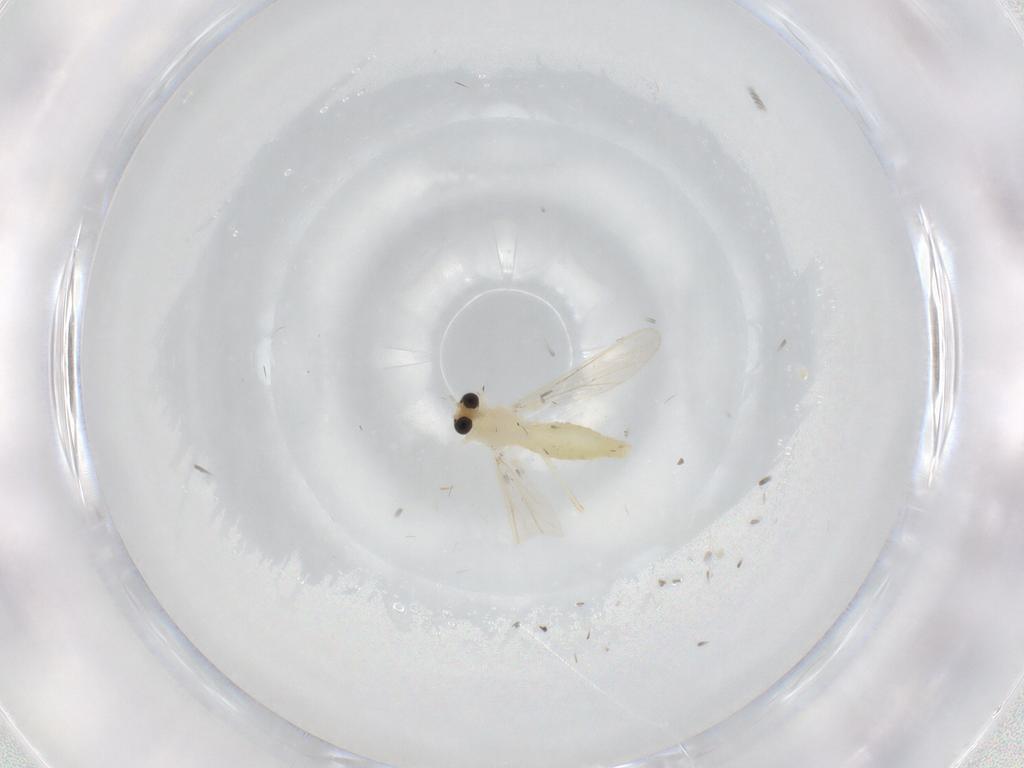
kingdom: Animalia
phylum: Arthropoda
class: Insecta
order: Diptera
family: Chironomidae
